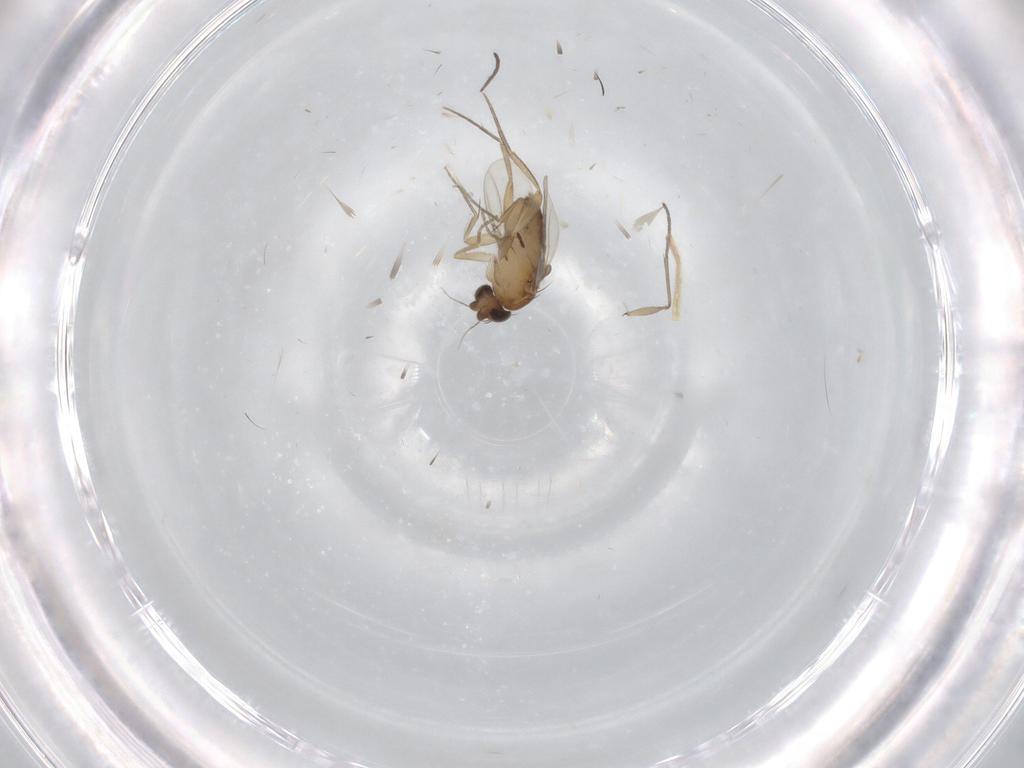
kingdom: Animalia
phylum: Arthropoda
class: Insecta
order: Diptera
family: Phoridae
